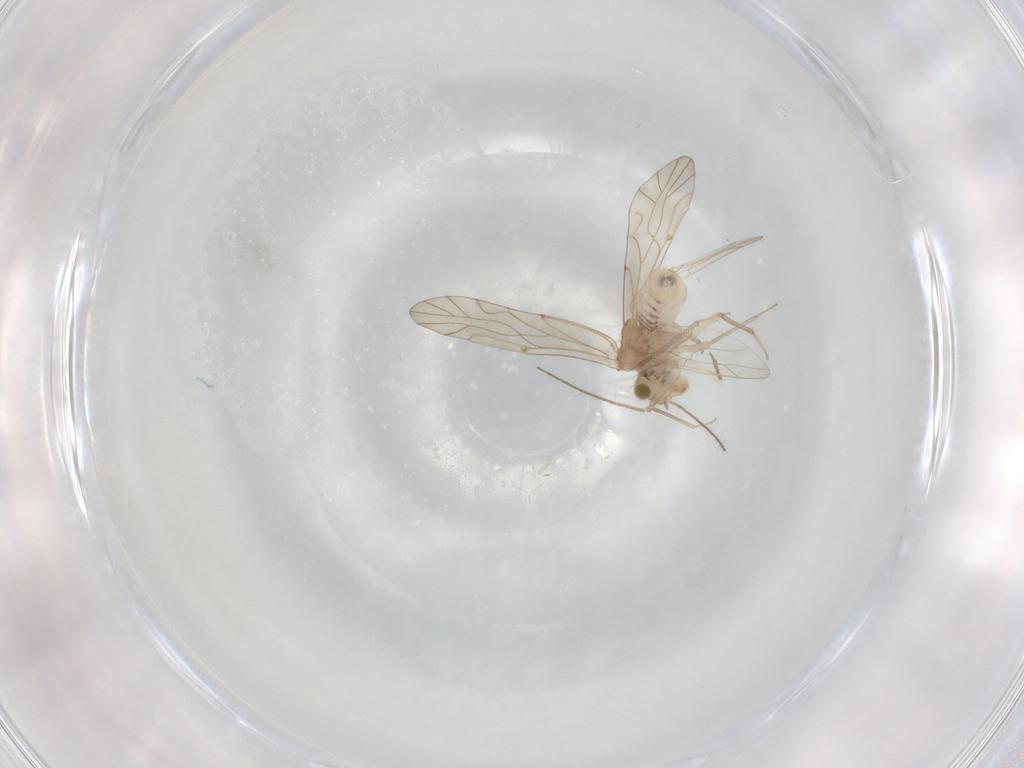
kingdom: Animalia
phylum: Arthropoda
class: Insecta
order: Psocodea
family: Lachesillidae
